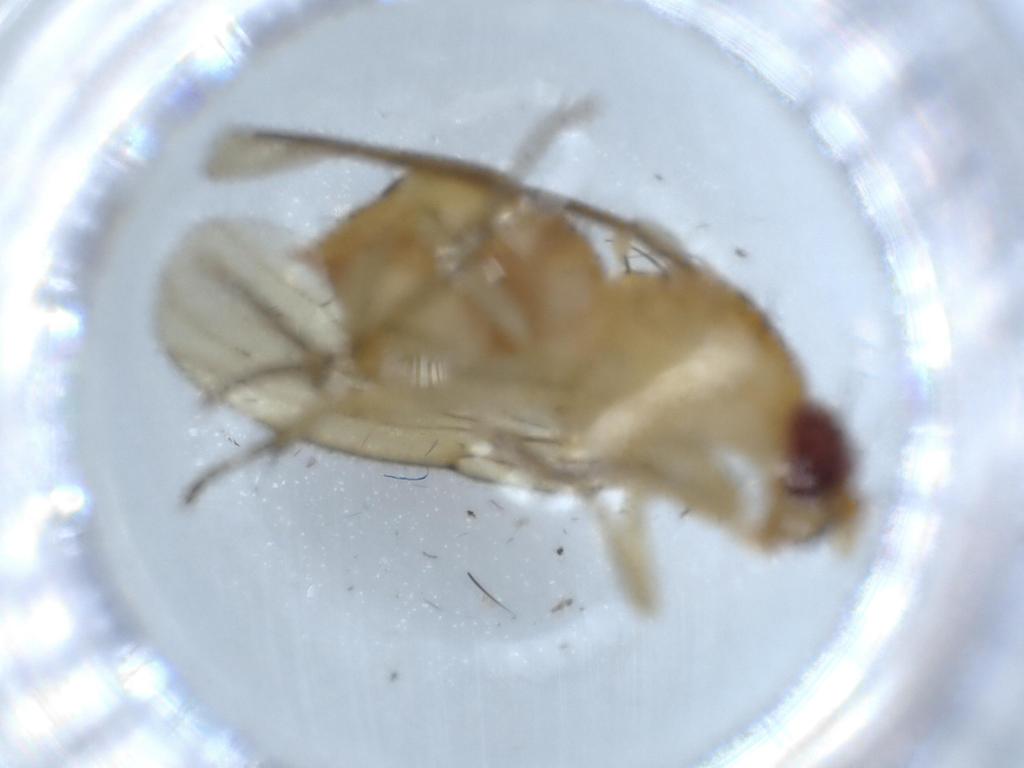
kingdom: Animalia
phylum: Arthropoda
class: Insecta
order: Diptera
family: Cecidomyiidae
